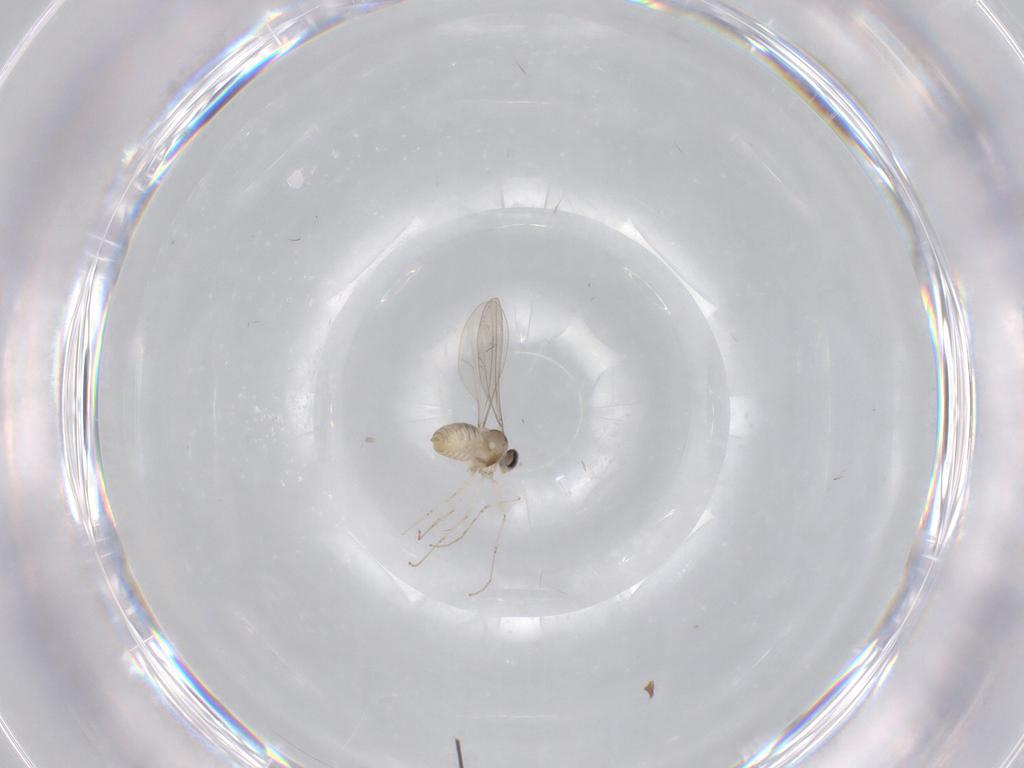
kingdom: Animalia
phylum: Arthropoda
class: Insecta
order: Diptera
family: Cecidomyiidae
